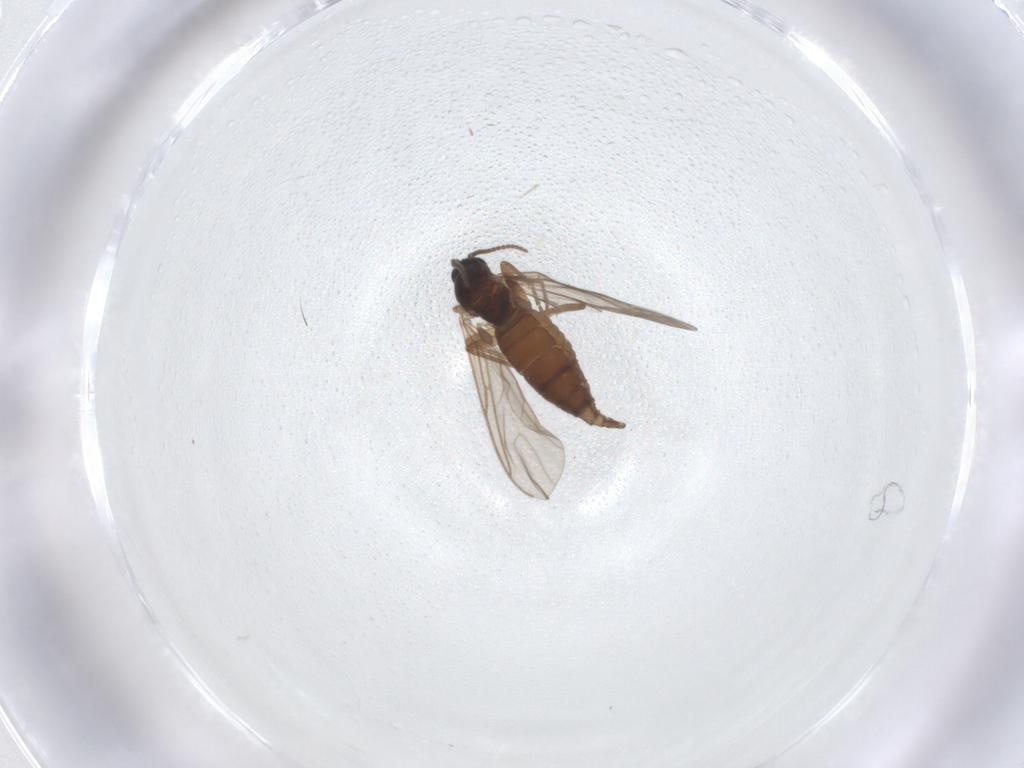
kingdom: Animalia
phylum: Arthropoda
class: Insecta
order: Diptera
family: Sciaridae
